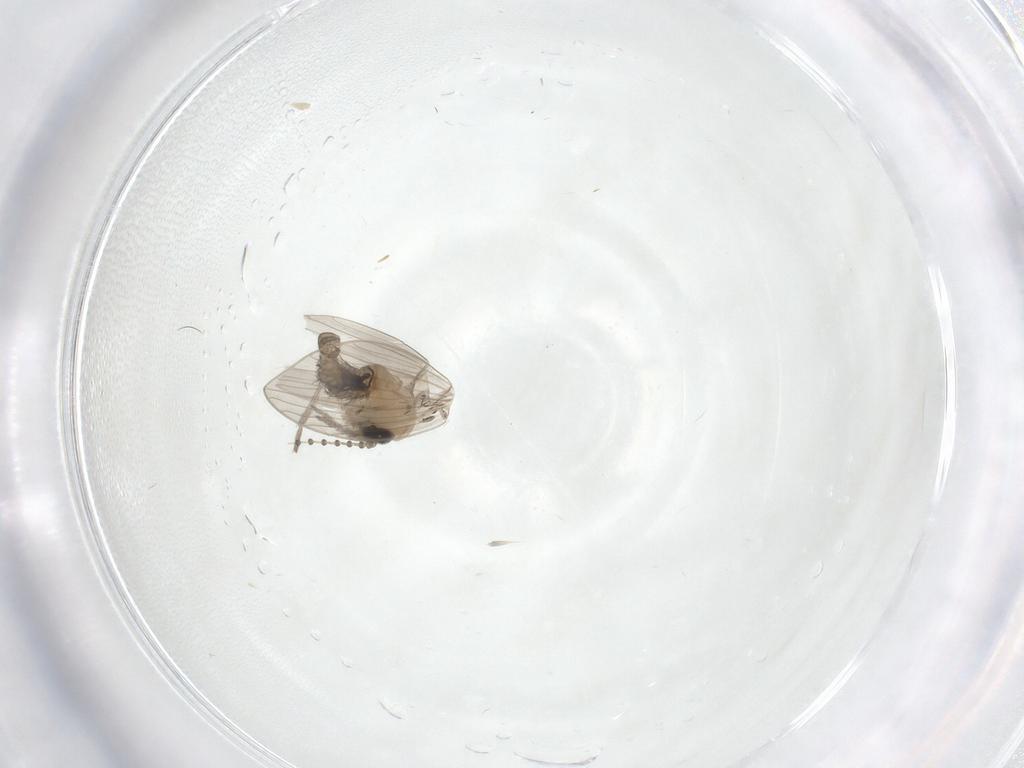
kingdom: Animalia
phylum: Arthropoda
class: Insecta
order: Diptera
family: Psychodidae
